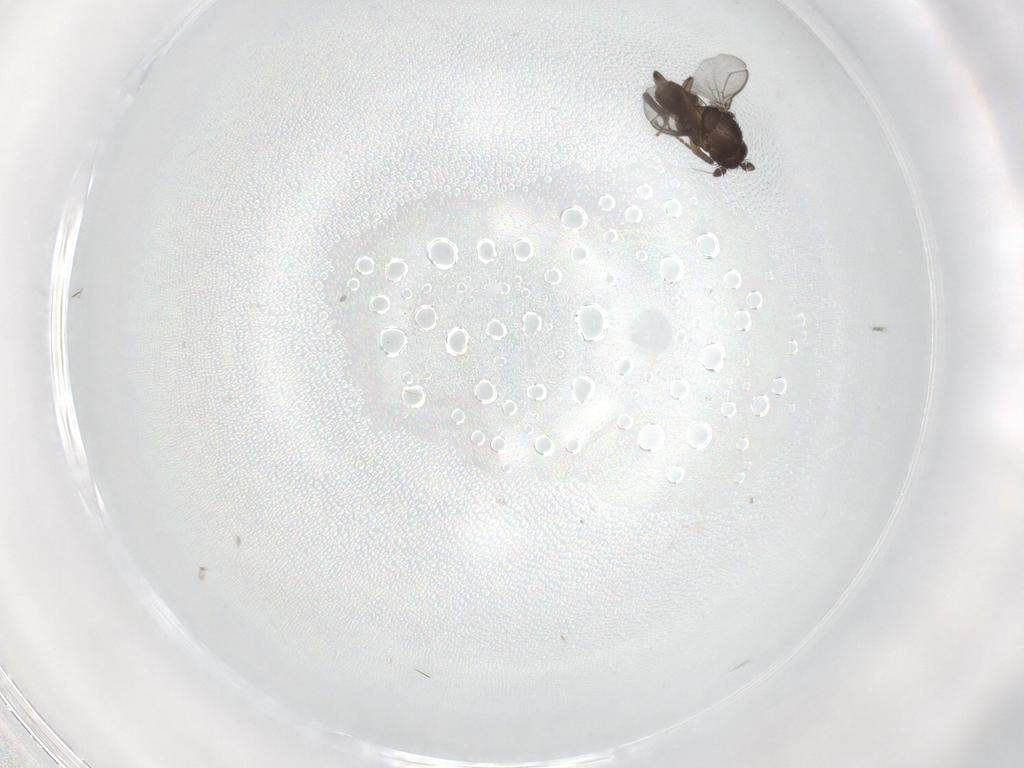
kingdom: Animalia
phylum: Arthropoda
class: Insecta
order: Diptera
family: Sphaeroceridae
